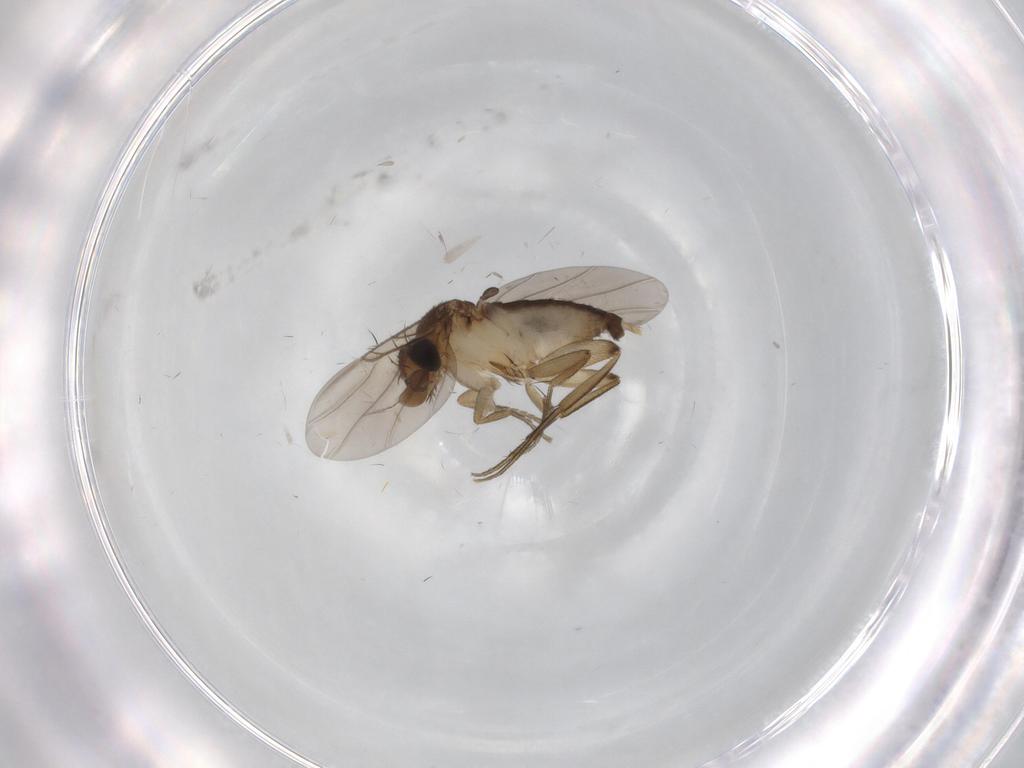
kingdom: Animalia
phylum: Arthropoda
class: Insecta
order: Diptera
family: Phoridae
